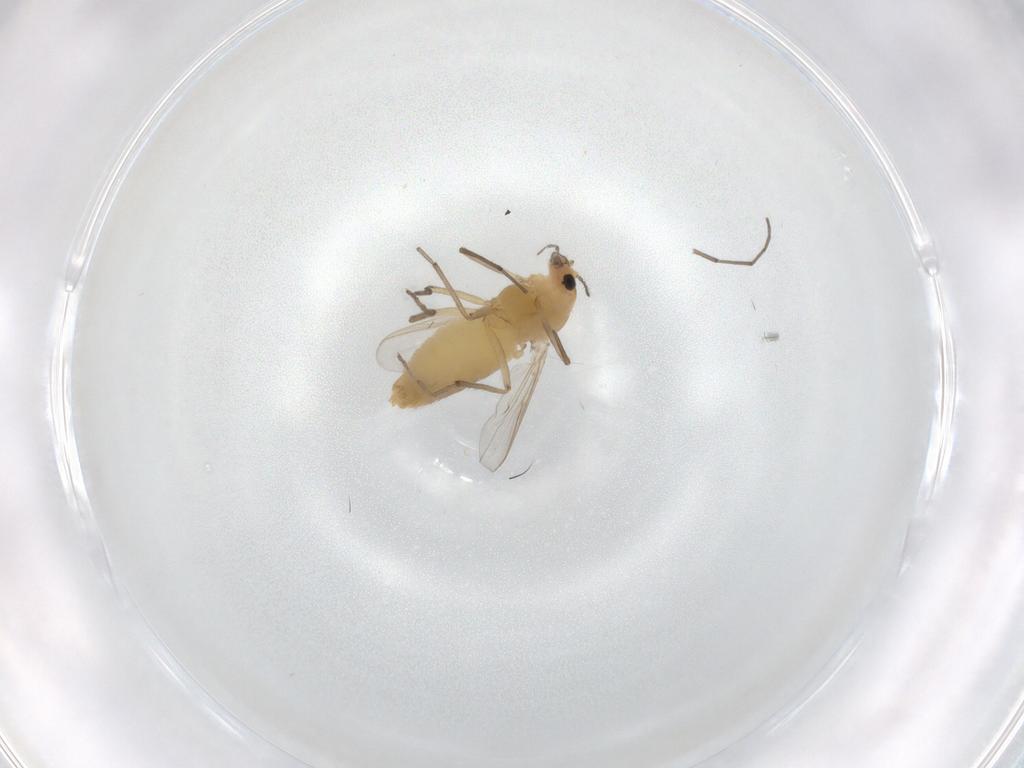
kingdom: Animalia
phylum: Arthropoda
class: Insecta
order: Diptera
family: Chironomidae
